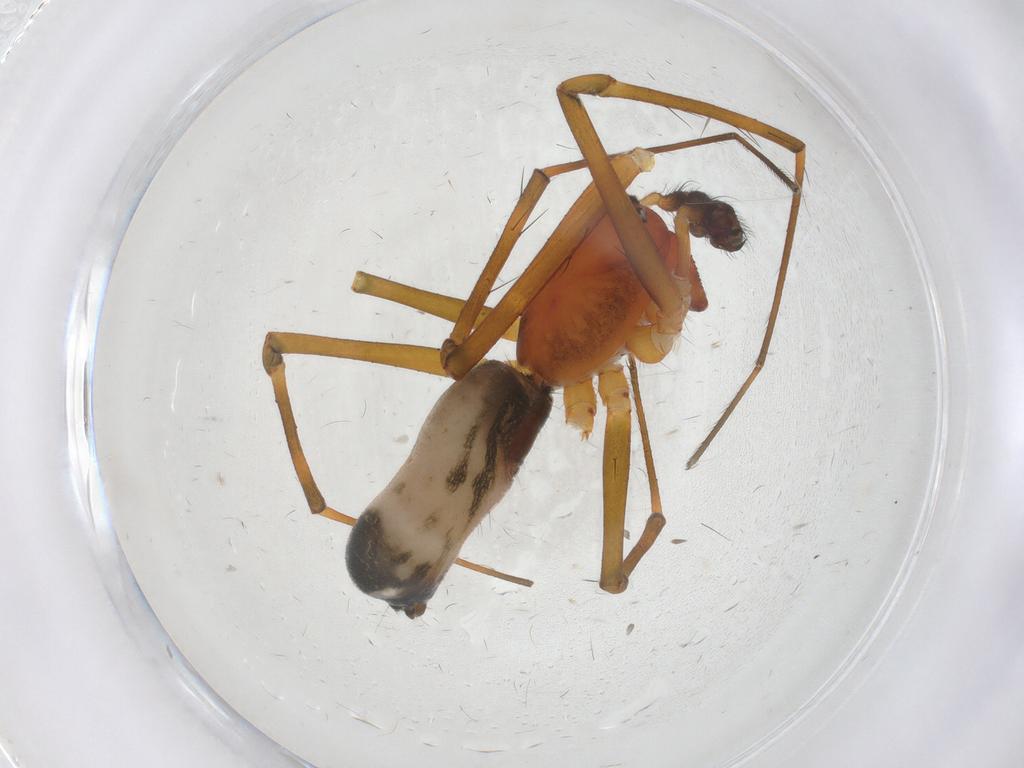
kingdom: Animalia
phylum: Arthropoda
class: Arachnida
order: Araneae
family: Linyphiidae
